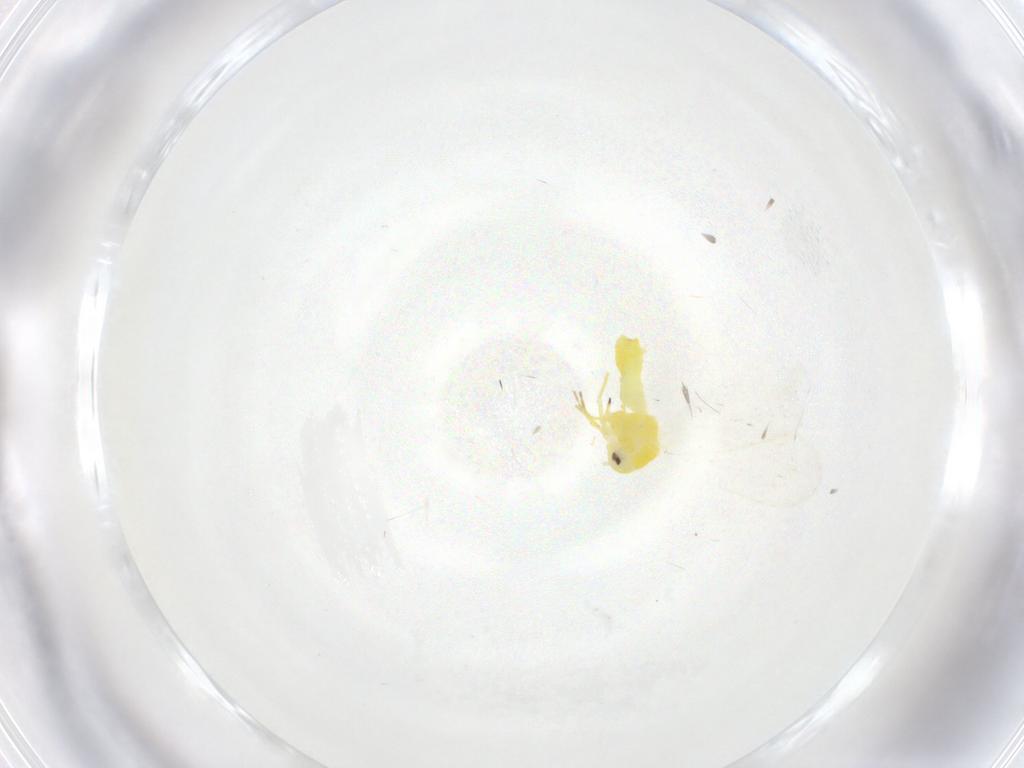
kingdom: Animalia
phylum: Arthropoda
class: Insecta
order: Hemiptera
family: Aleyrodidae
